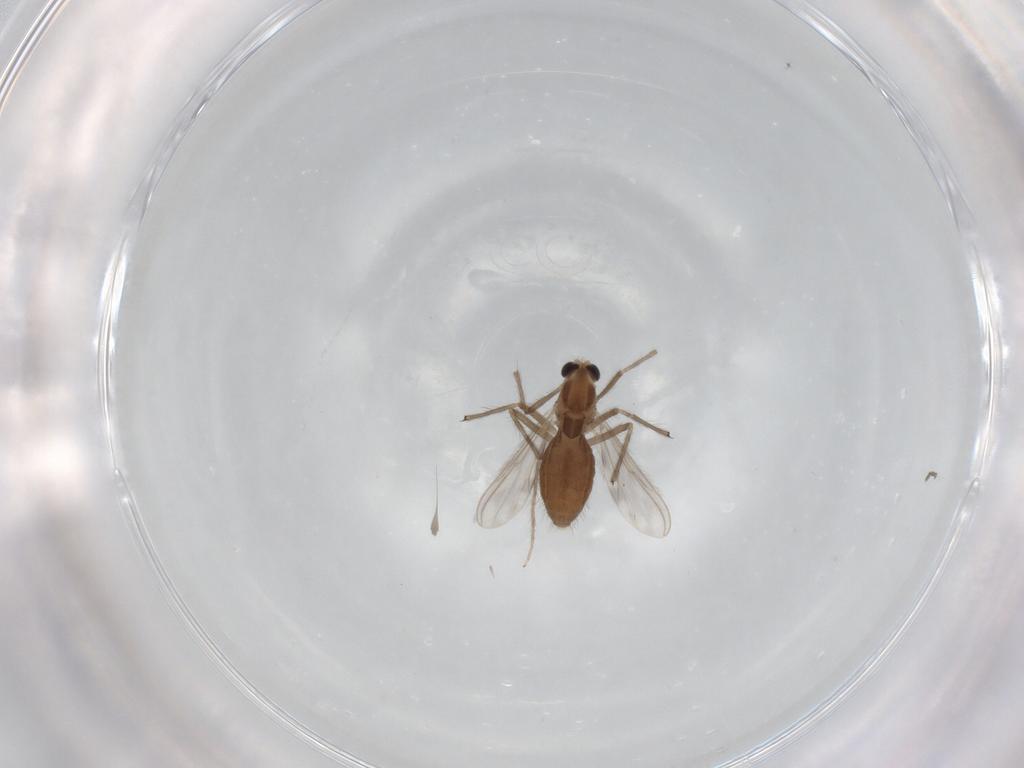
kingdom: Animalia
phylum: Arthropoda
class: Insecta
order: Diptera
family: Chironomidae
